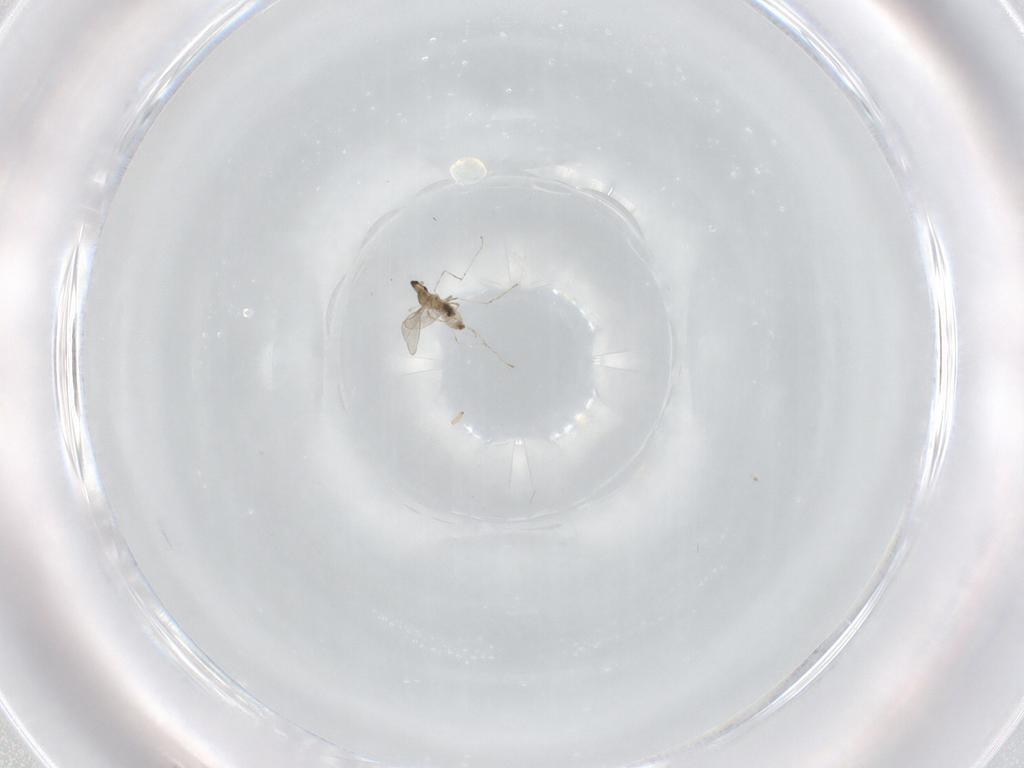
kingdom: Animalia
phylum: Arthropoda
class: Insecta
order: Diptera
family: Cecidomyiidae
